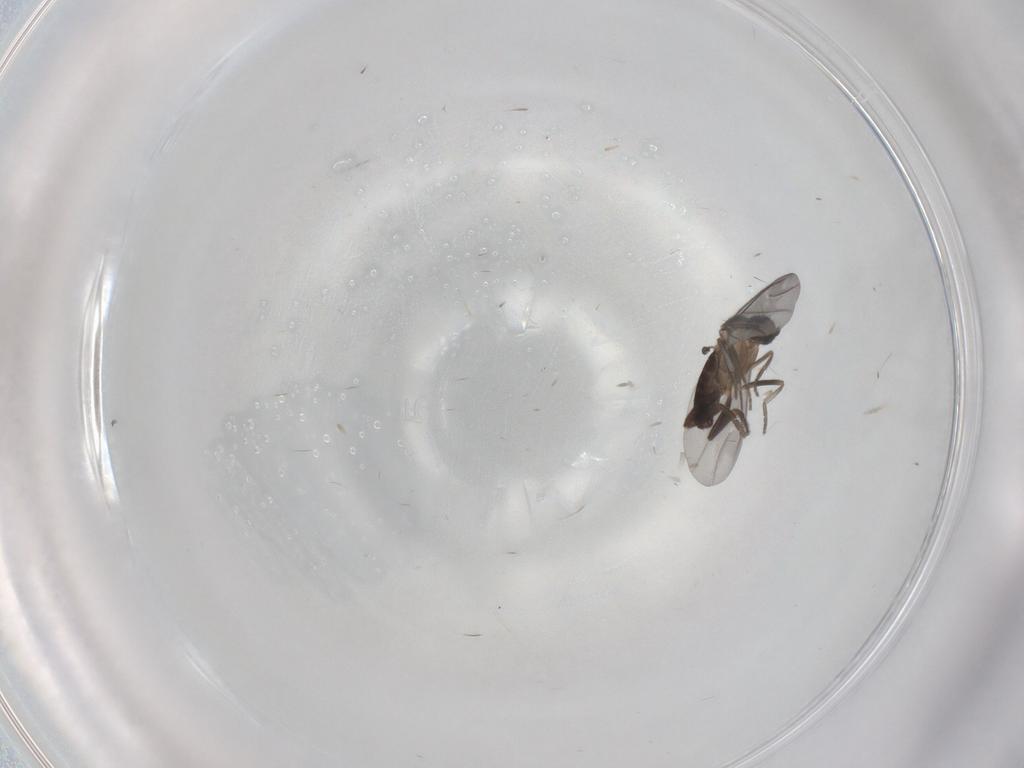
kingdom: Animalia
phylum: Arthropoda
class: Insecta
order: Diptera
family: Phoridae
